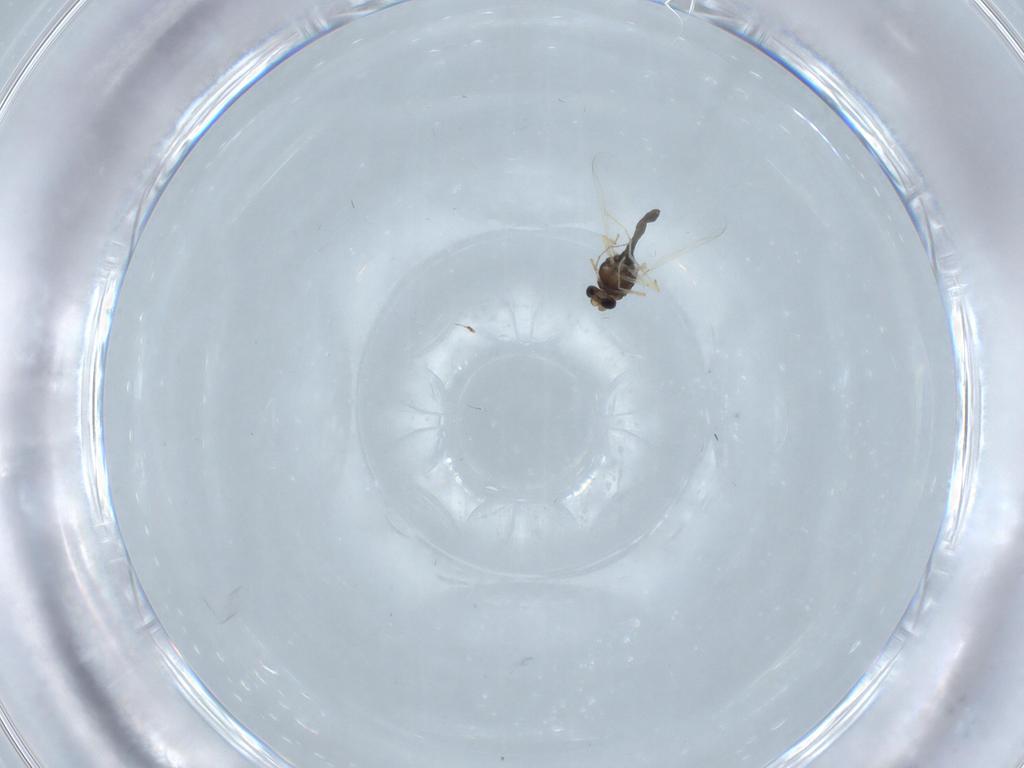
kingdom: Animalia
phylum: Arthropoda
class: Insecta
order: Diptera
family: Chironomidae
